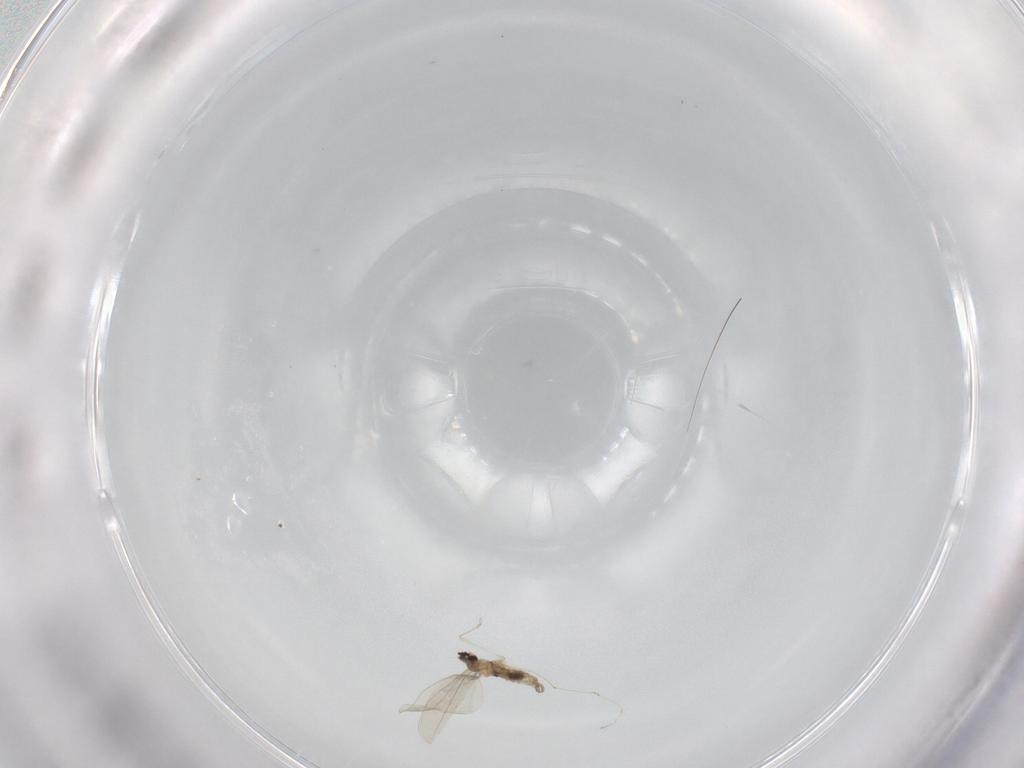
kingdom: Animalia
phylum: Arthropoda
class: Insecta
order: Diptera
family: Cecidomyiidae
